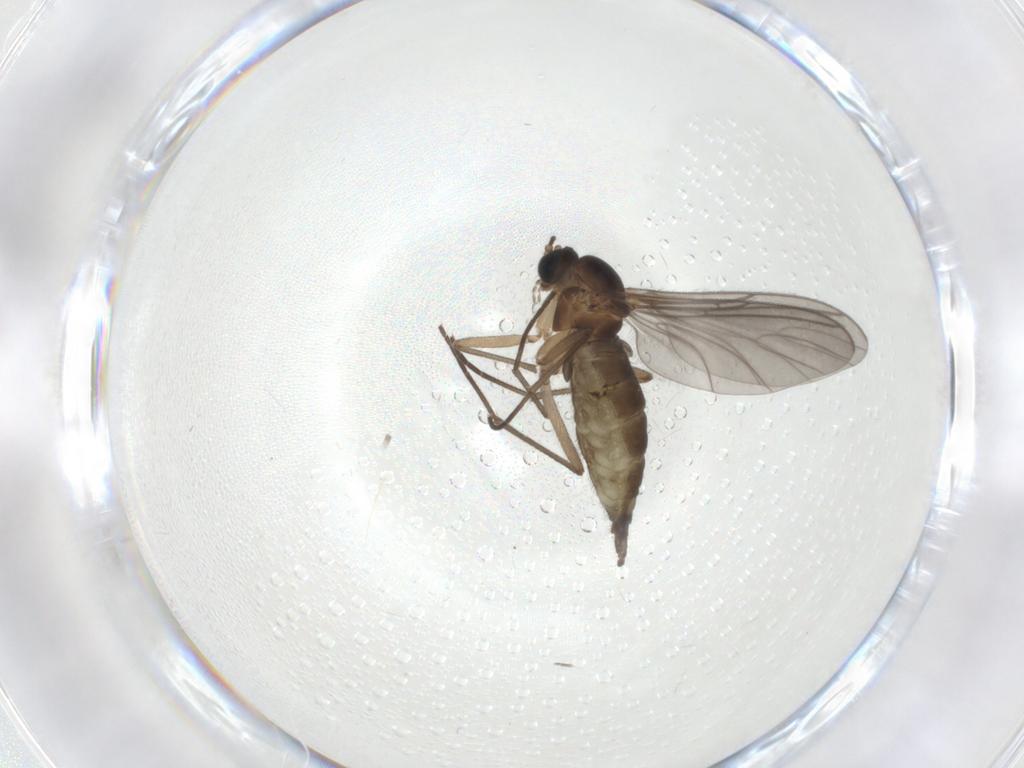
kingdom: Animalia
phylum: Arthropoda
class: Insecta
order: Diptera
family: Cecidomyiidae
